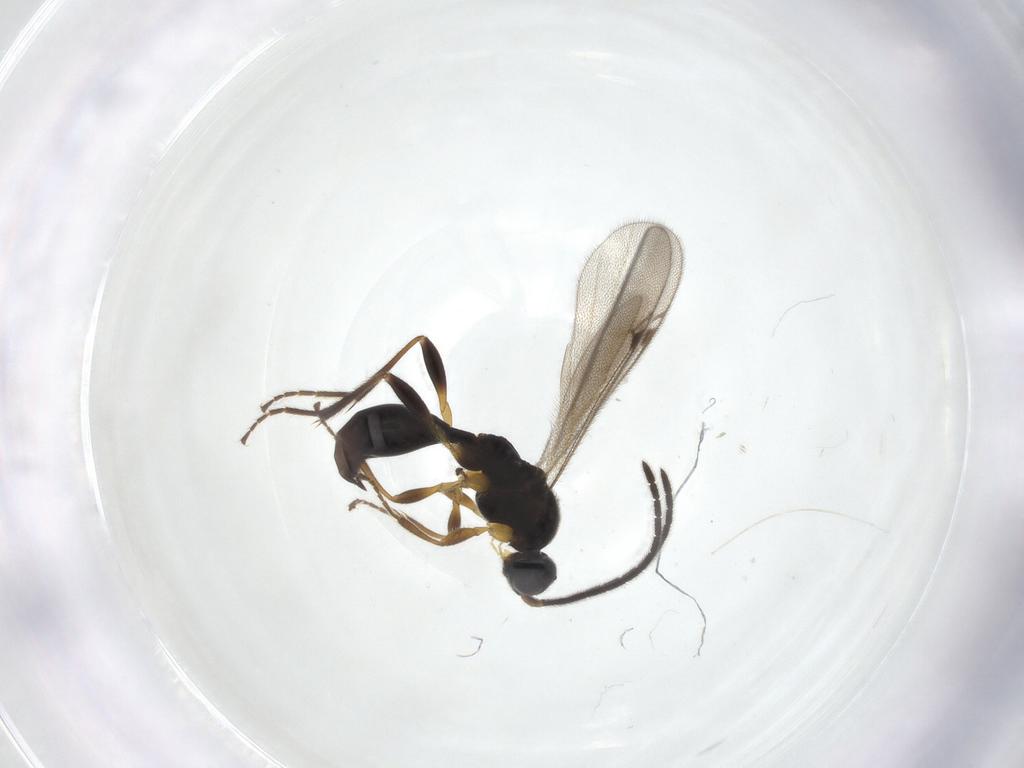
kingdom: Animalia
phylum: Arthropoda
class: Insecta
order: Hymenoptera
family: Proctotrupidae
